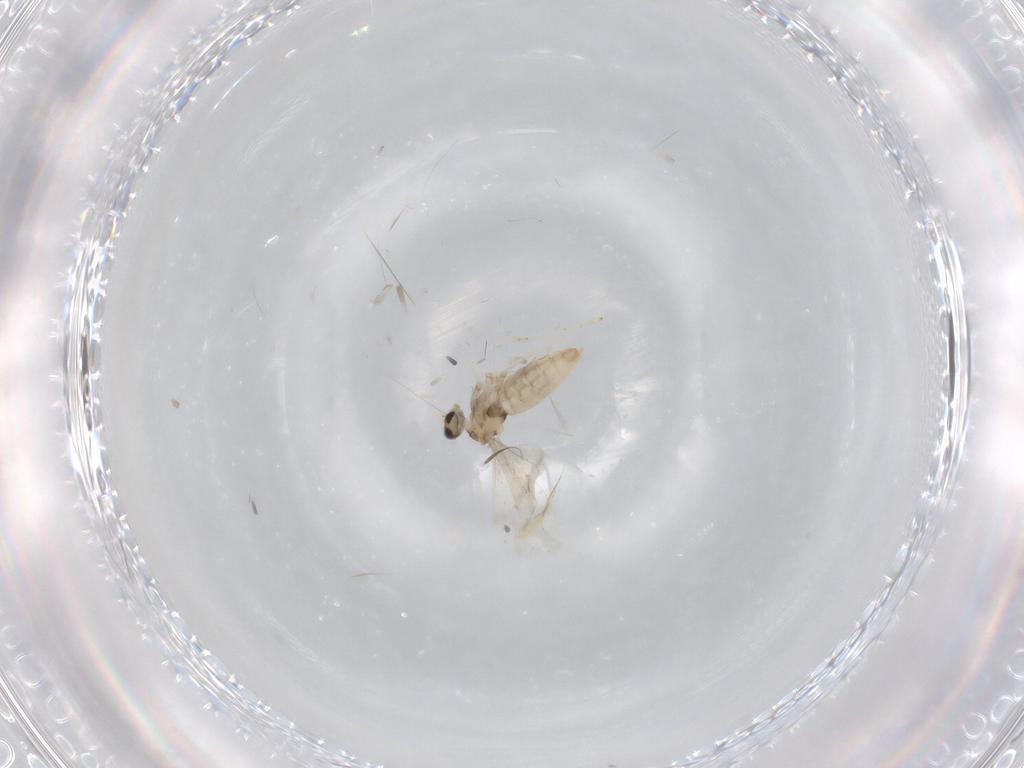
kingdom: Animalia
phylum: Arthropoda
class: Insecta
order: Diptera
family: Cecidomyiidae
